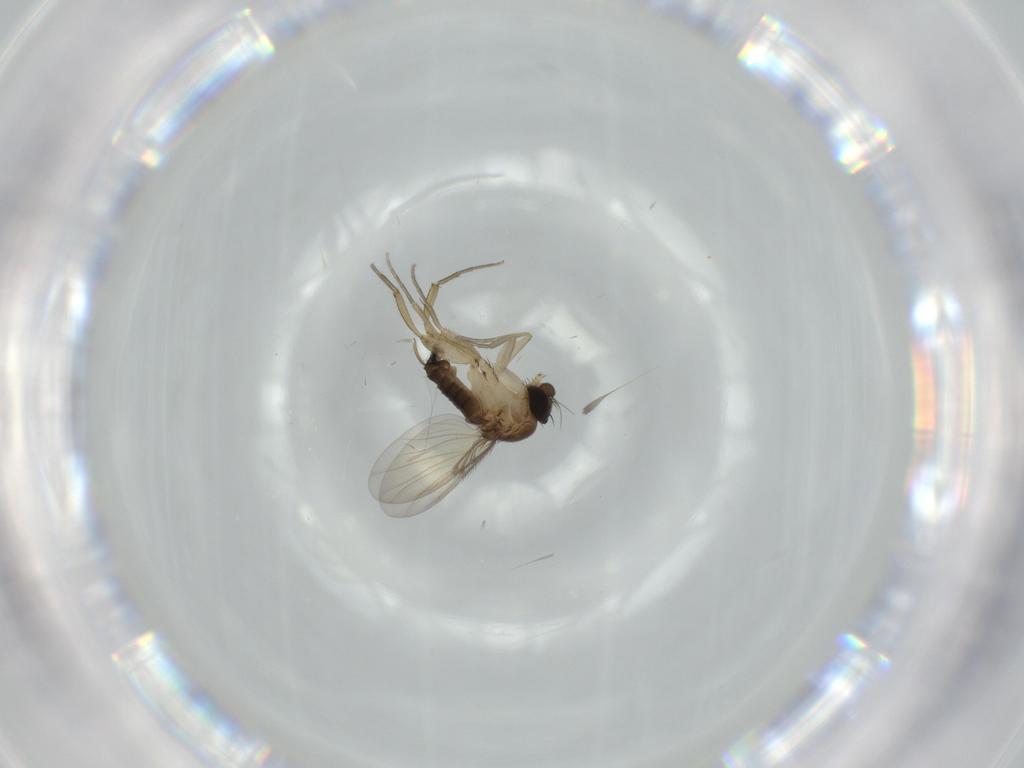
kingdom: Animalia
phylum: Arthropoda
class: Insecta
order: Diptera
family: Phoridae
